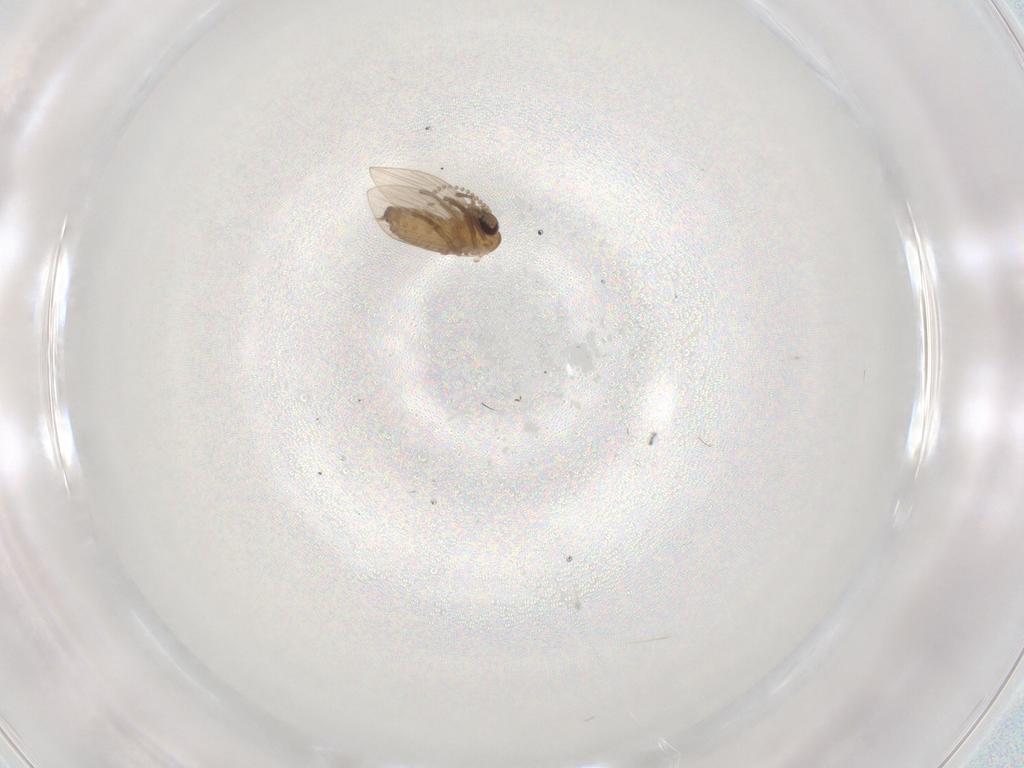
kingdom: Animalia
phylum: Arthropoda
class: Insecta
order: Diptera
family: Psychodidae
